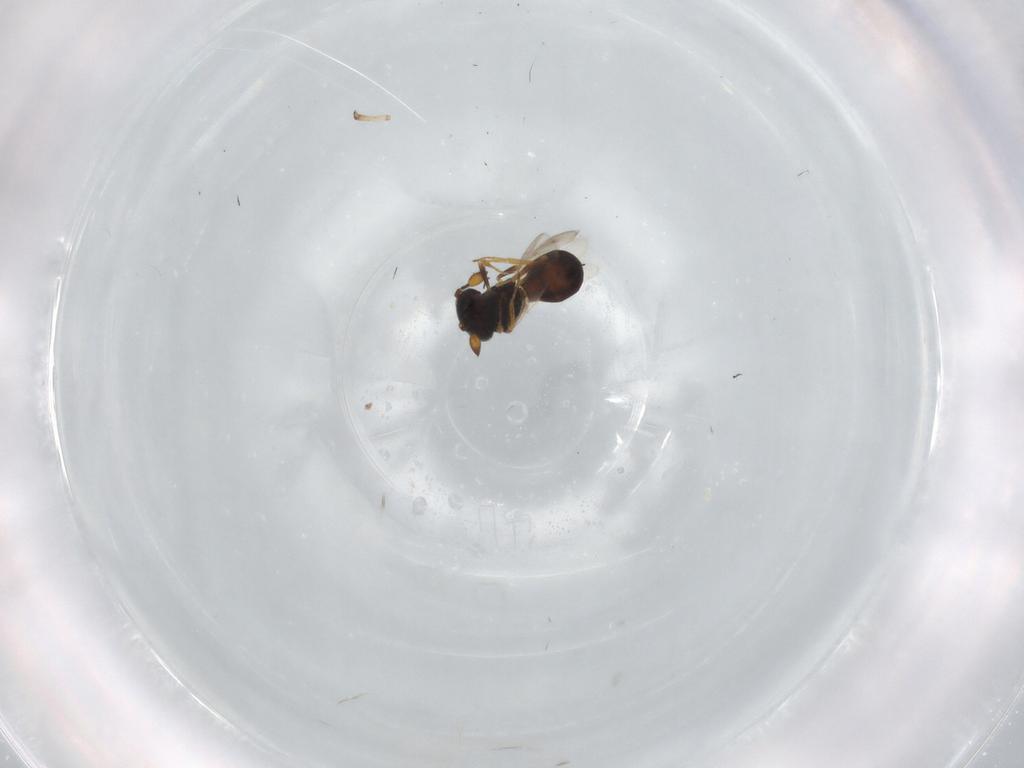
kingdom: Animalia
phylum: Arthropoda
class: Insecta
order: Hymenoptera
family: Scelionidae
